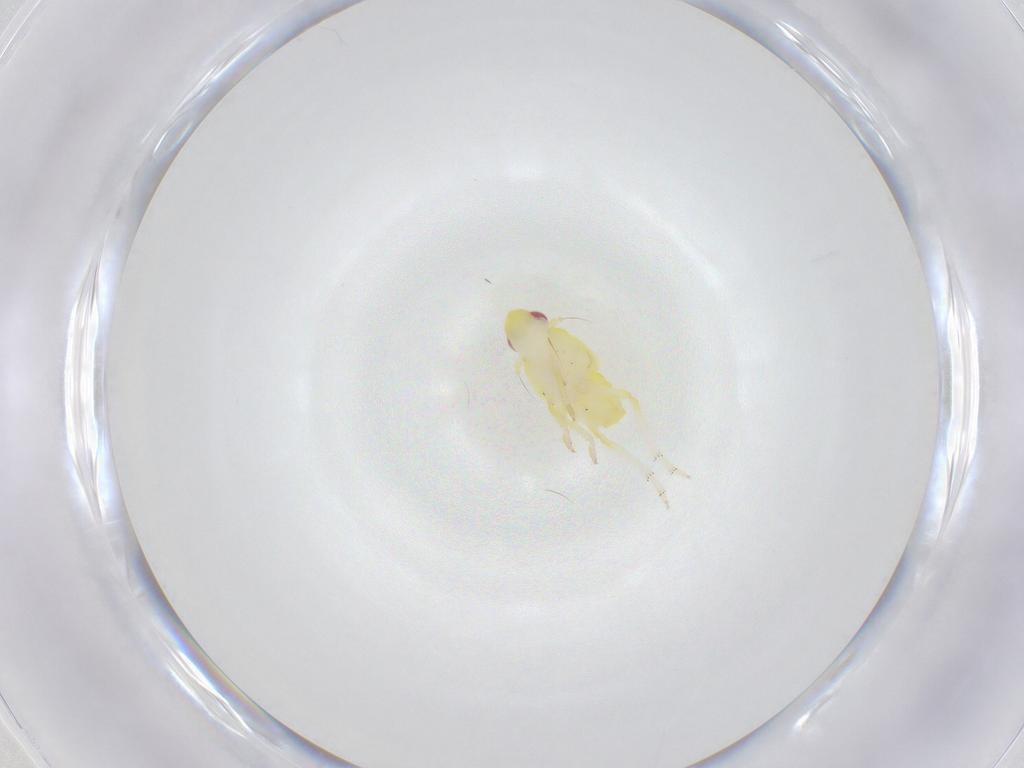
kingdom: Animalia
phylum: Arthropoda
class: Insecta
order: Hemiptera
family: Fulgoroidea_incertae_sedis
